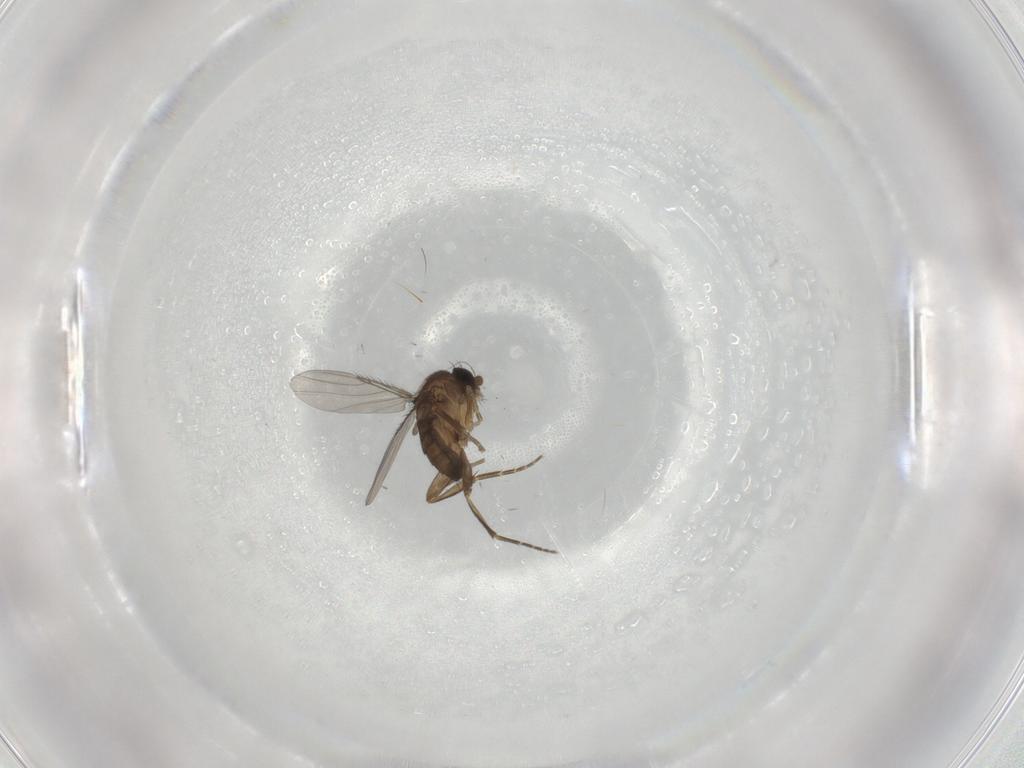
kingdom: Animalia
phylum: Arthropoda
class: Insecta
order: Diptera
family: Phoridae
